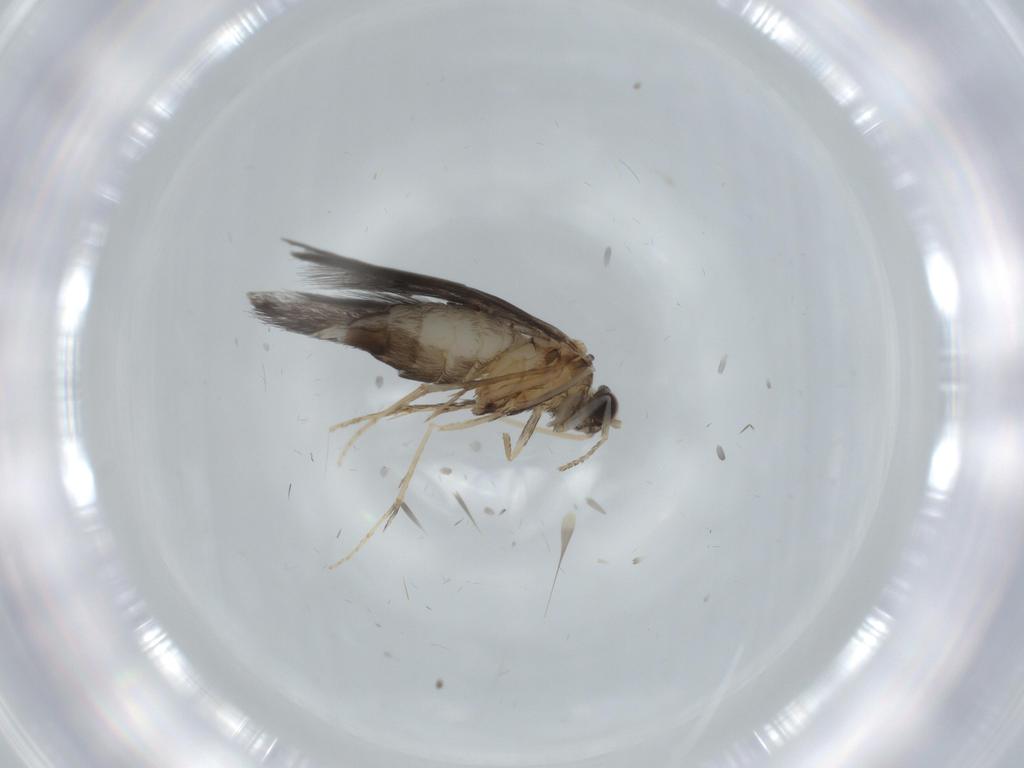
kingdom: Animalia
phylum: Arthropoda
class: Insecta
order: Trichoptera
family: Hydroptilidae
